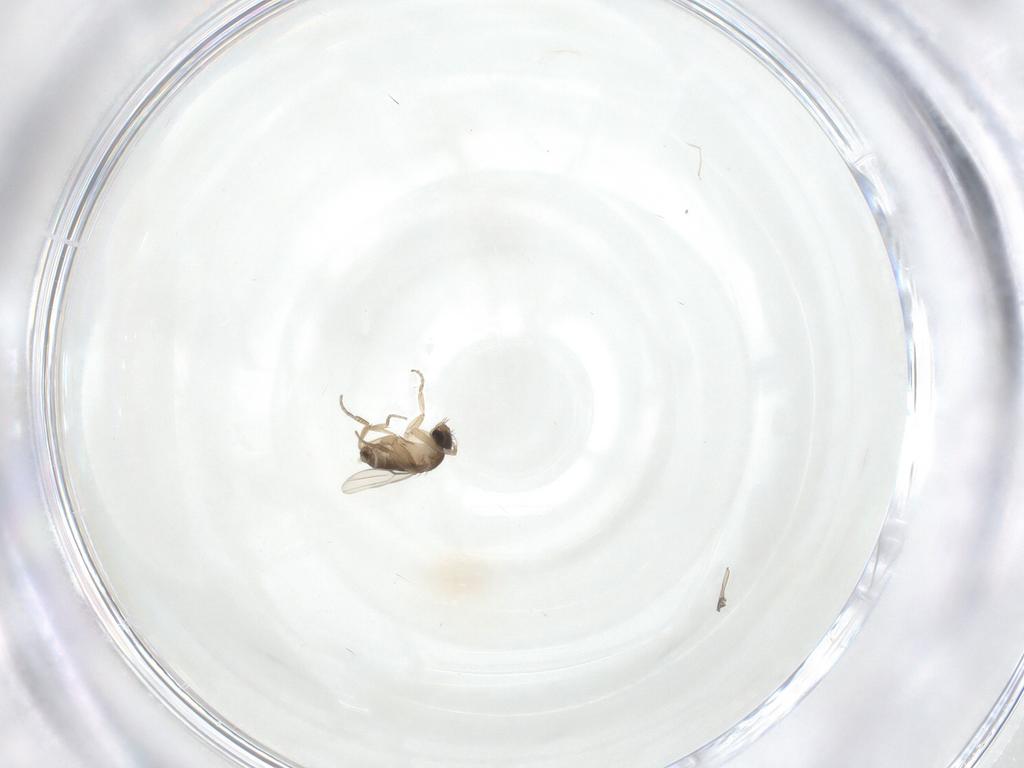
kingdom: Animalia
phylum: Arthropoda
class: Insecta
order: Diptera
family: Phoridae
